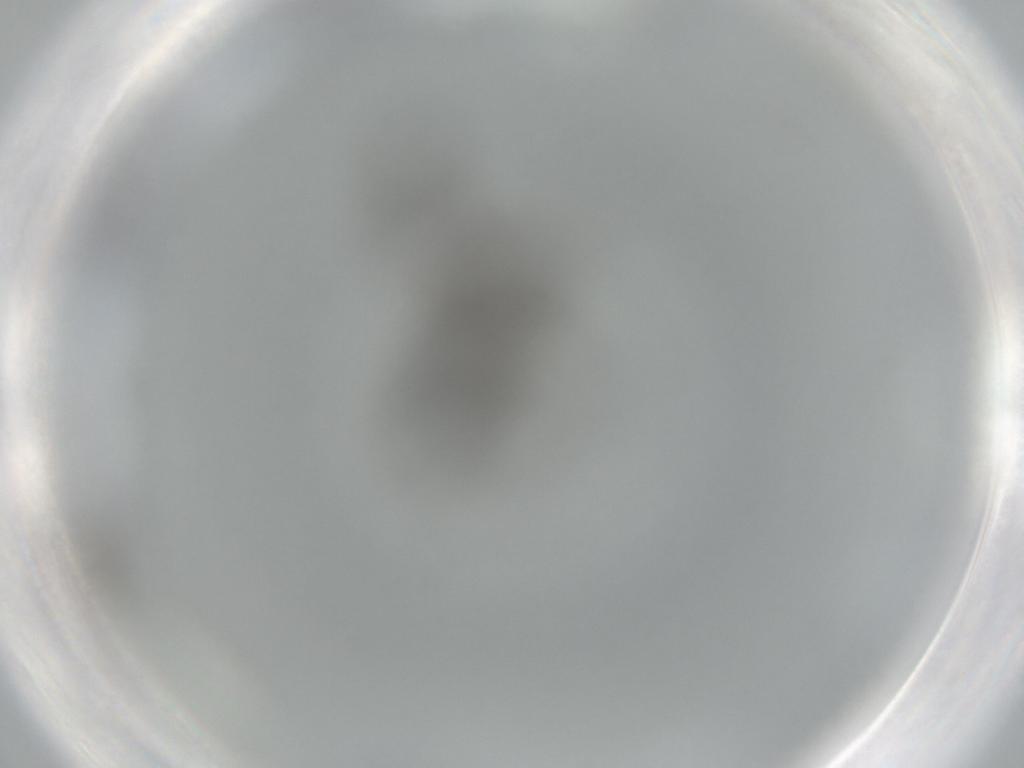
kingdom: Animalia
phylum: Arthropoda
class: Insecta
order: Diptera
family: Sciaridae
